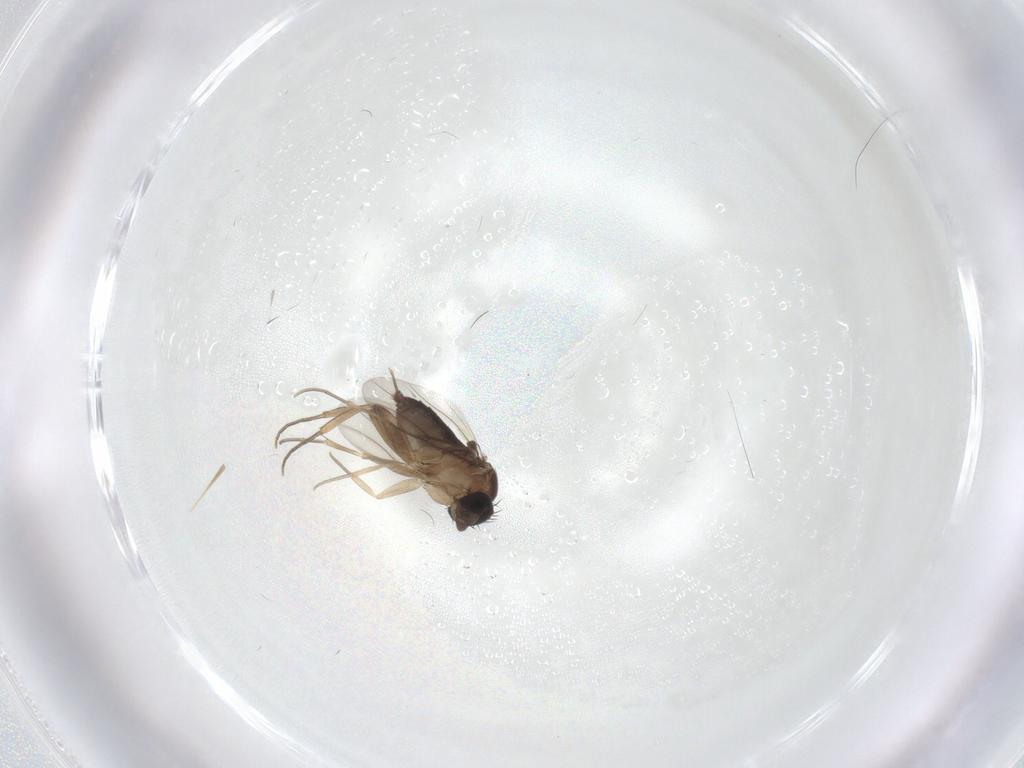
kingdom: Animalia
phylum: Arthropoda
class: Insecta
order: Diptera
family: Phoridae
